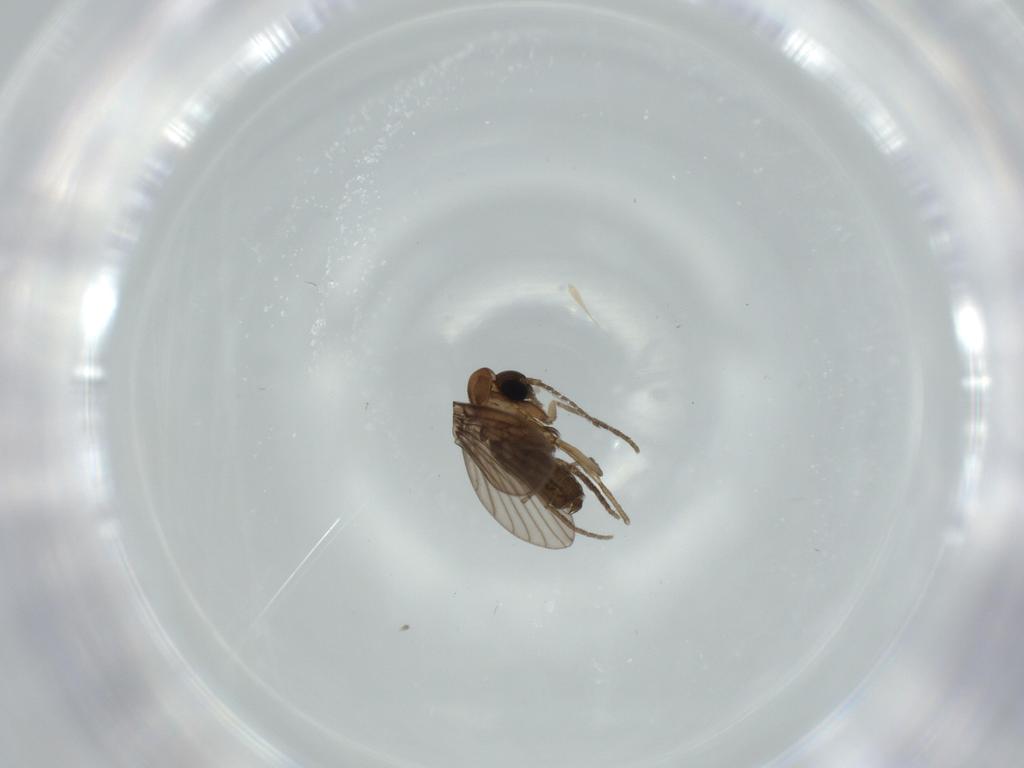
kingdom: Animalia
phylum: Arthropoda
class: Insecta
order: Diptera
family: Psychodidae
